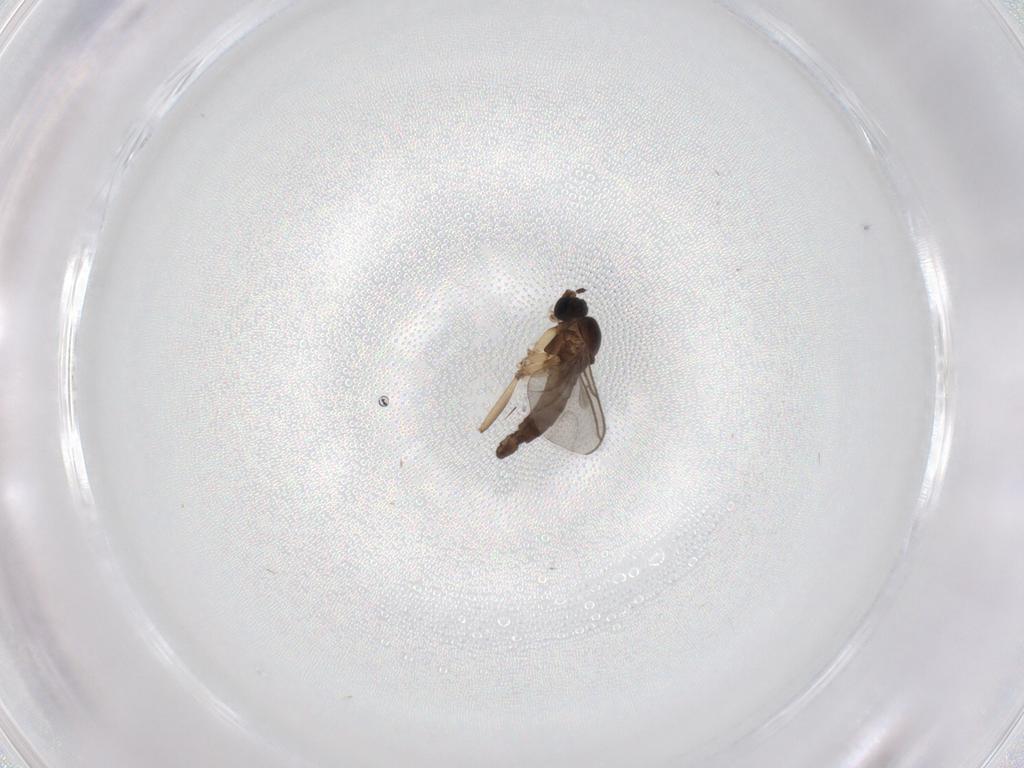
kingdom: Animalia
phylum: Arthropoda
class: Insecta
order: Diptera
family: Sciaridae
